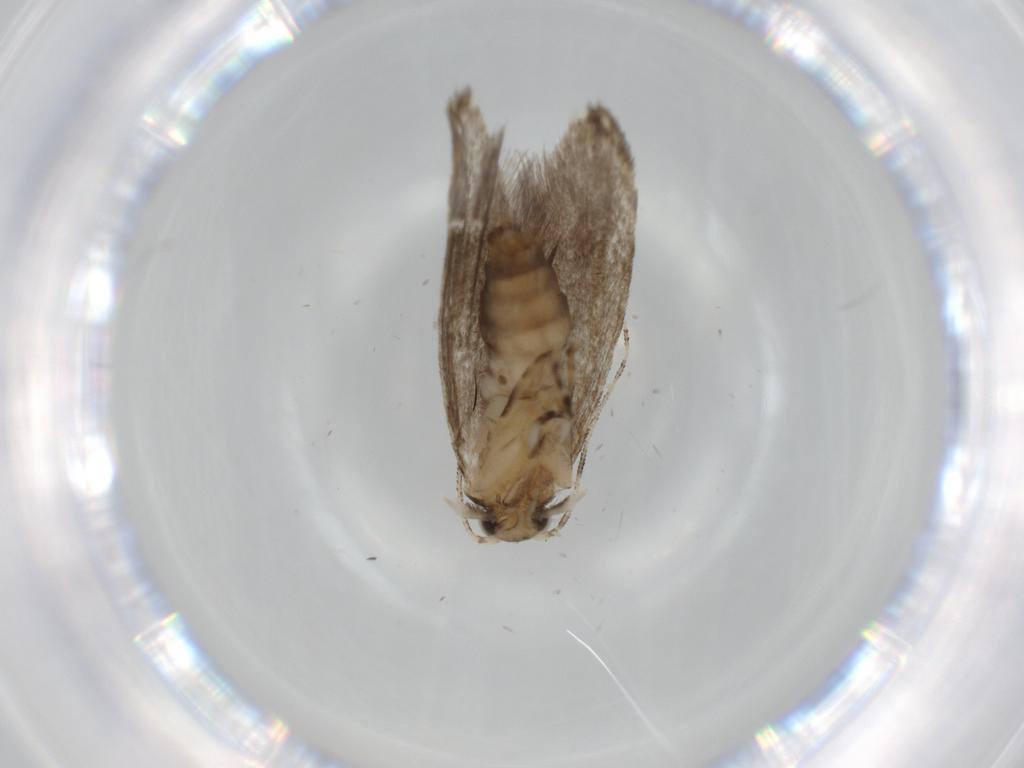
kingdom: Animalia
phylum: Arthropoda
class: Insecta
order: Lepidoptera
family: Tineidae
